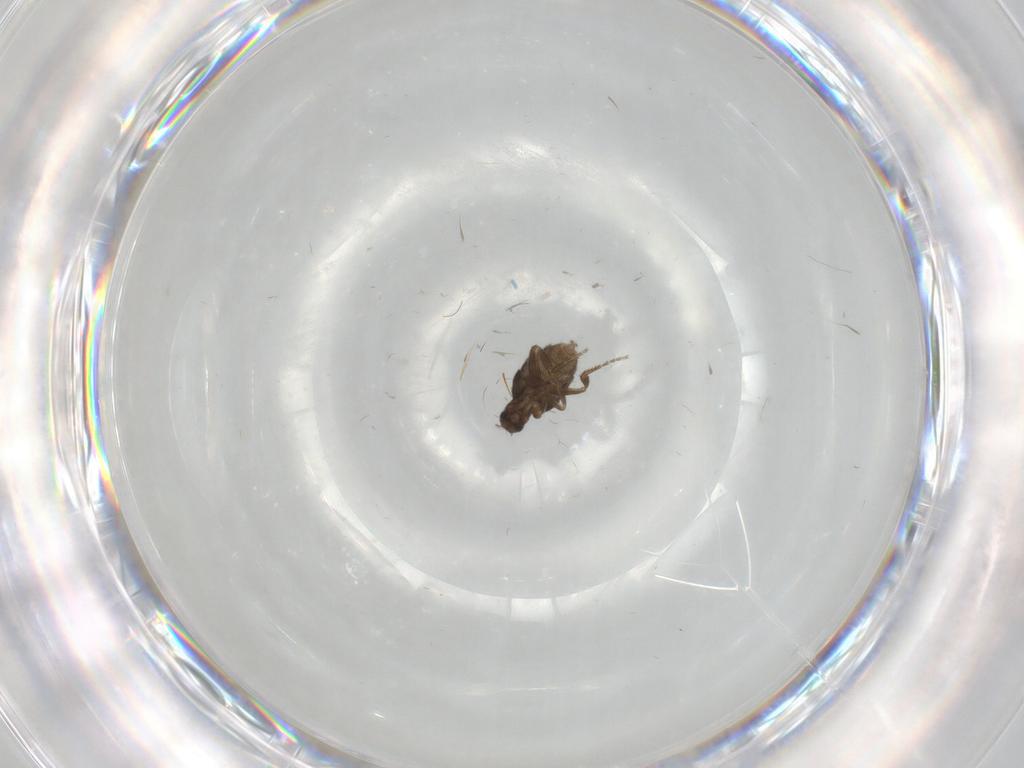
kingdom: Animalia
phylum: Arthropoda
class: Insecta
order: Diptera
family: Phoridae
